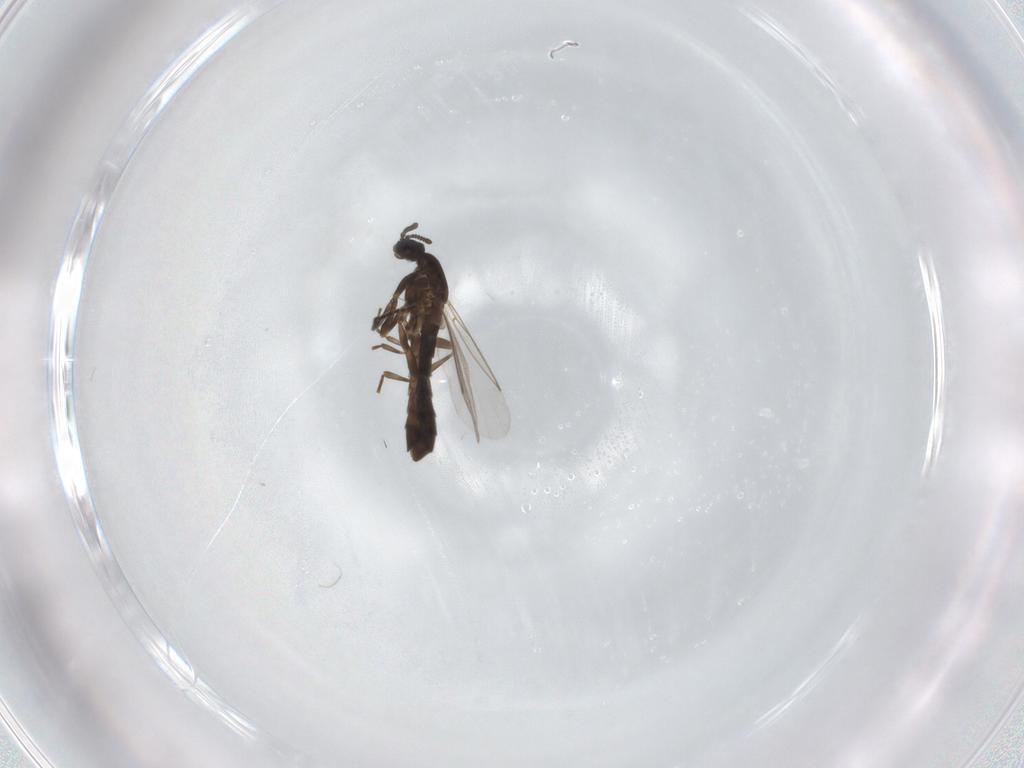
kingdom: Animalia
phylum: Arthropoda
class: Insecta
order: Diptera
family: Scatopsidae
